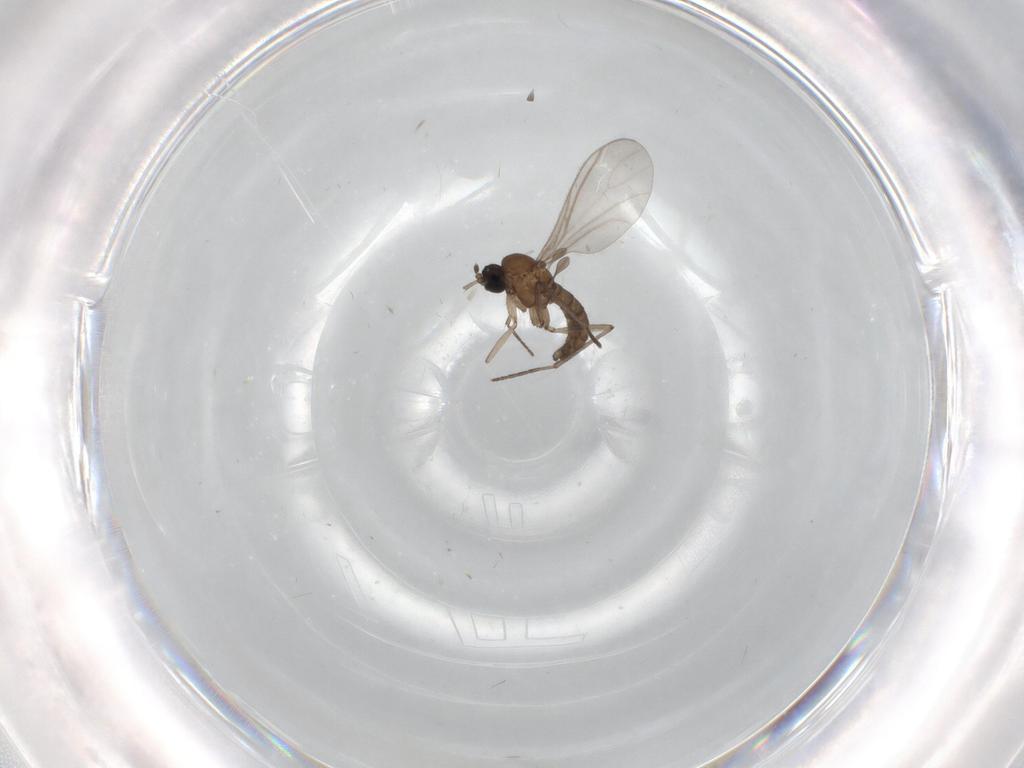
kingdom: Animalia
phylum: Arthropoda
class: Insecta
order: Diptera
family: Sciaridae
